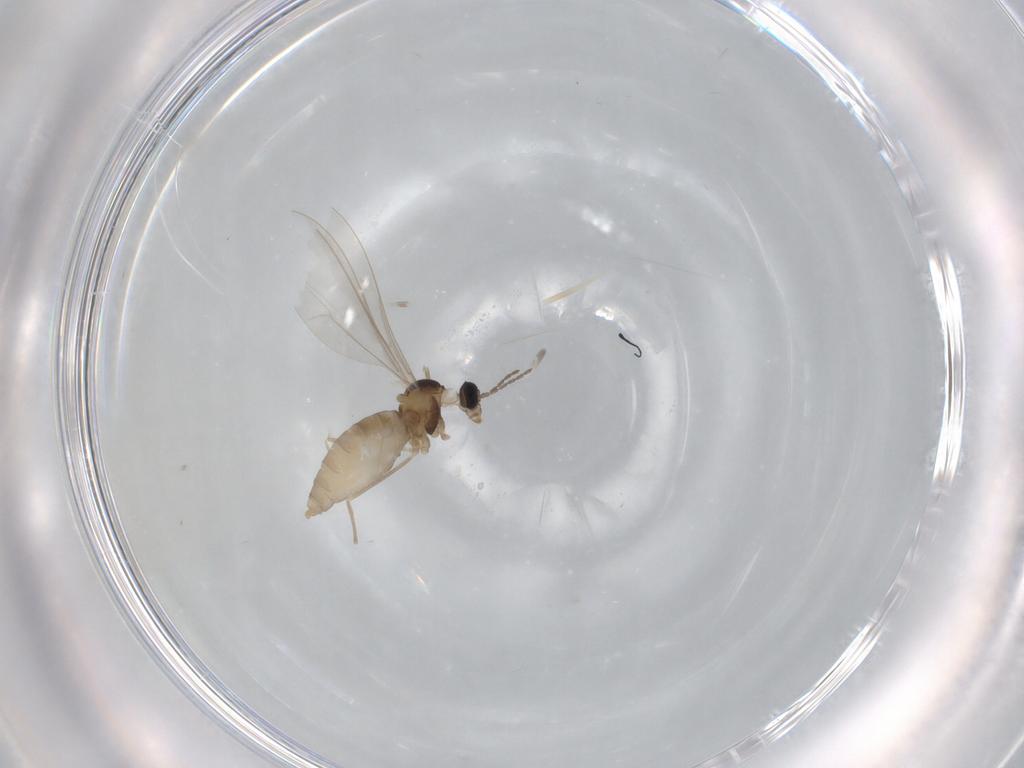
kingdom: Animalia
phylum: Arthropoda
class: Insecta
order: Diptera
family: Cecidomyiidae
